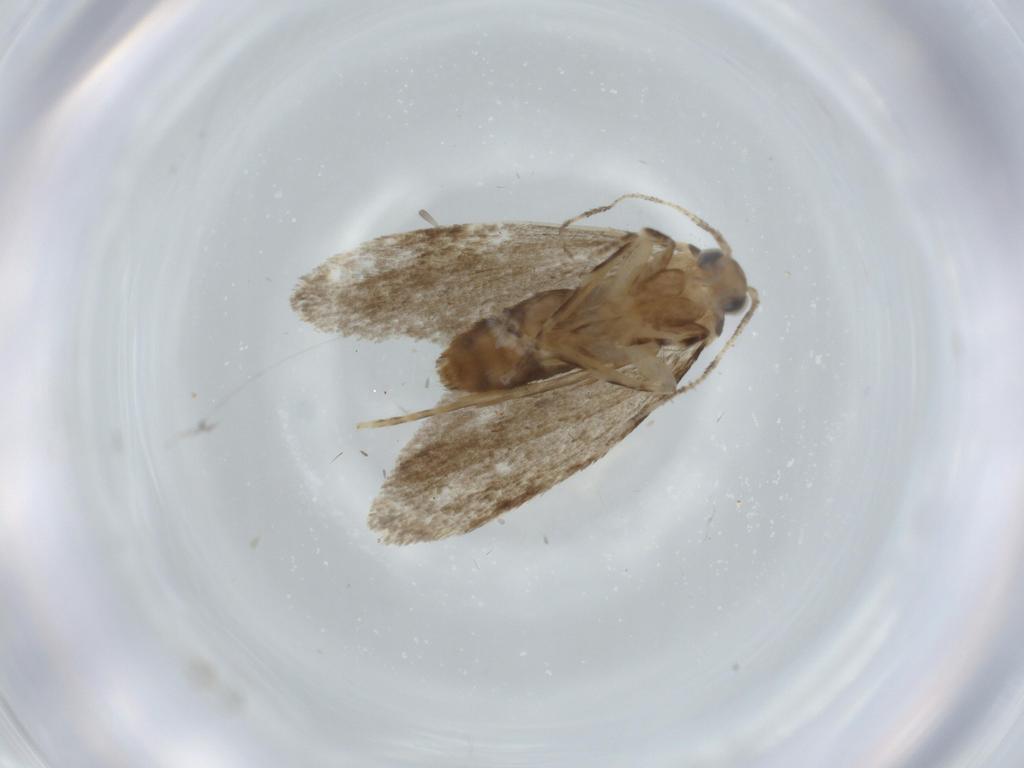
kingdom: Animalia
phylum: Arthropoda
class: Insecta
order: Lepidoptera
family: Tineidae
